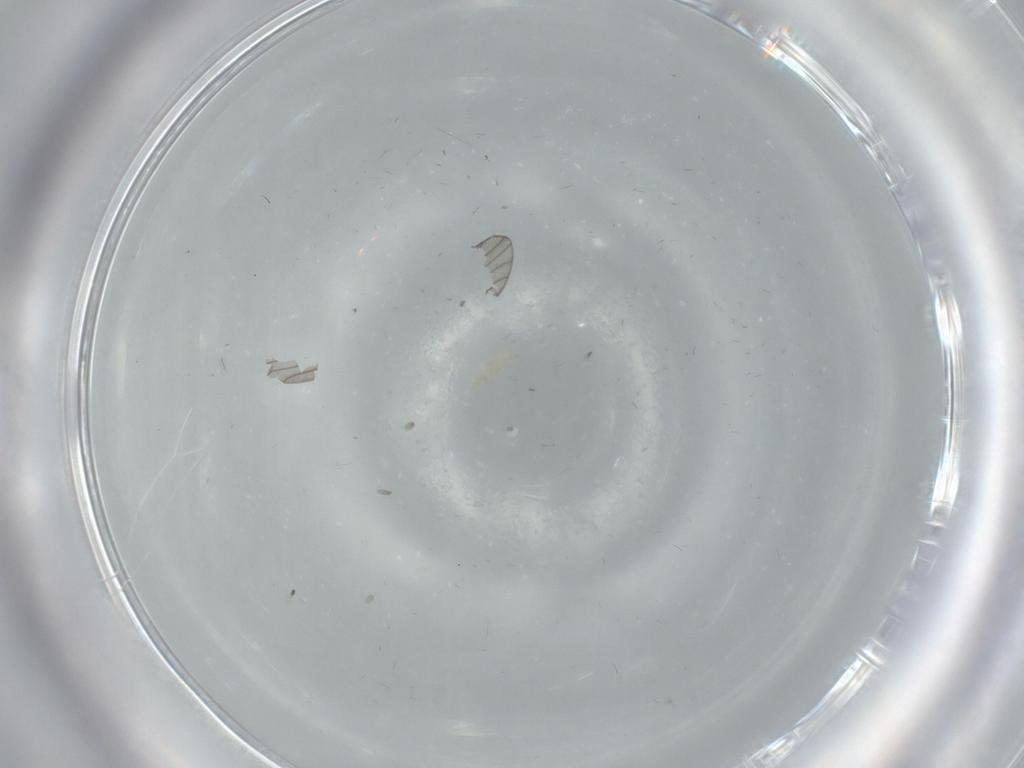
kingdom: Animalia
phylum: Arthropoda
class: Insecta
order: Neuroptera
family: Coniopterygidae
